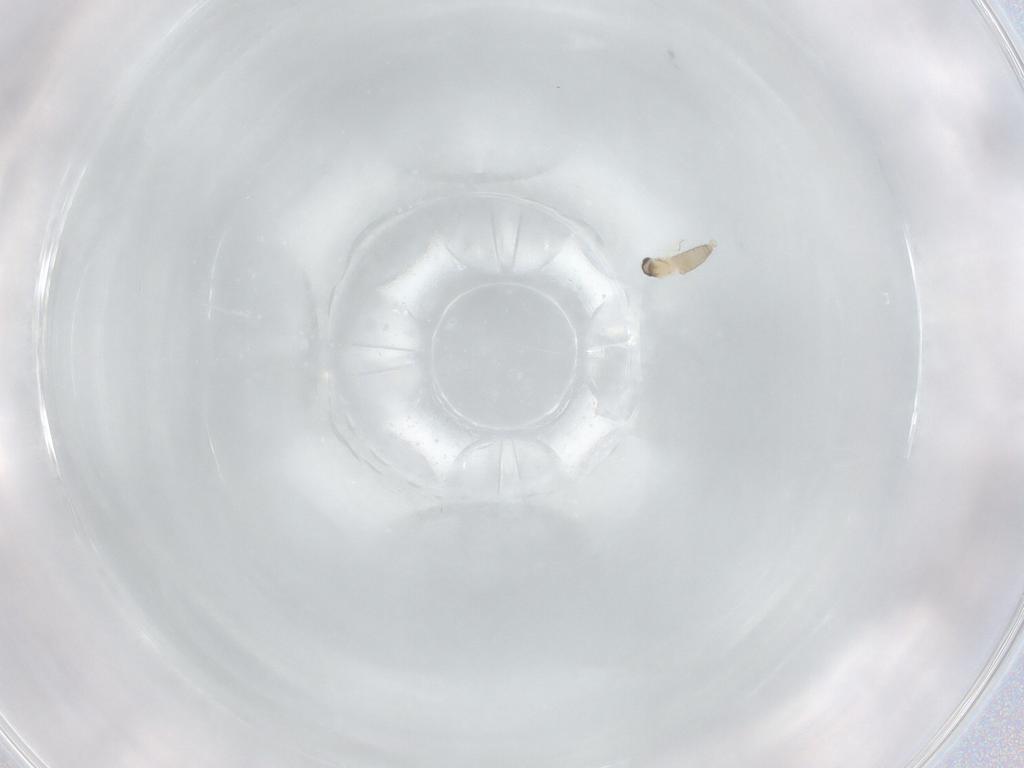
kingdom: Animalia
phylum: Arthropoda
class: Insecta
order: Diptera
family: Cecidomyiidae
